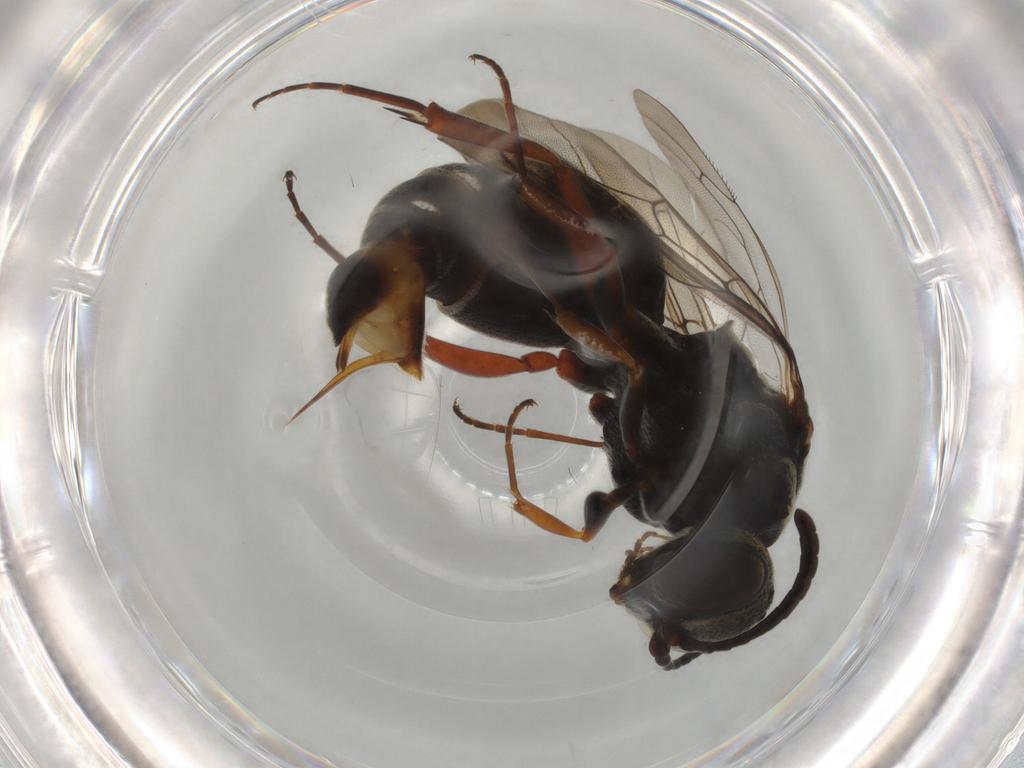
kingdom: Animalia
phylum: Arthropoda
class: Insecta
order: Hymenoptera
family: Bembicidae
